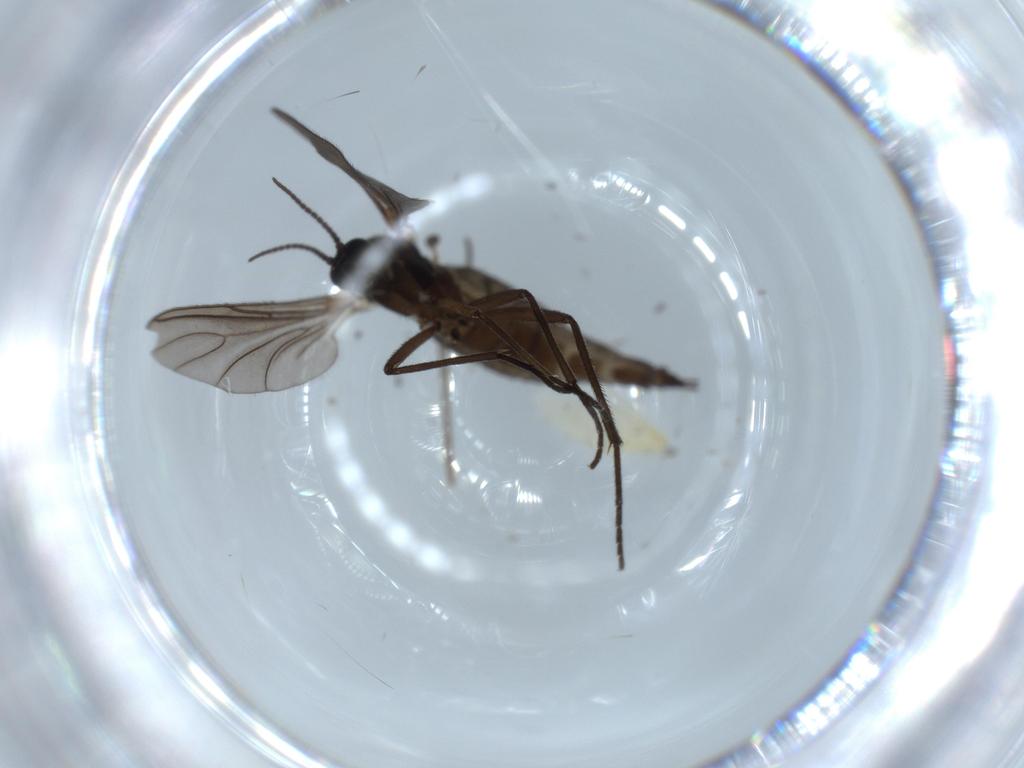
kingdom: Animalia
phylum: Arthropoda
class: Insecta
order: Diptera
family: Sciaridae
